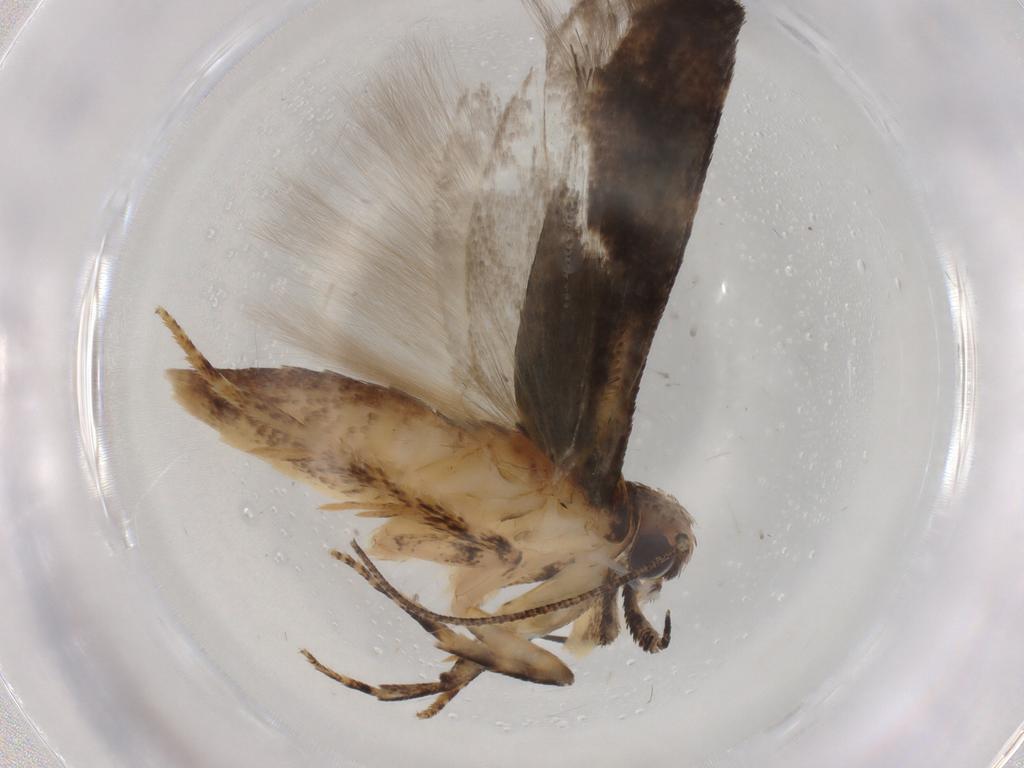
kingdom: Animalia
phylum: Arthropoda
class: Insecta
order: Lepidoptera
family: Gelechiidae
